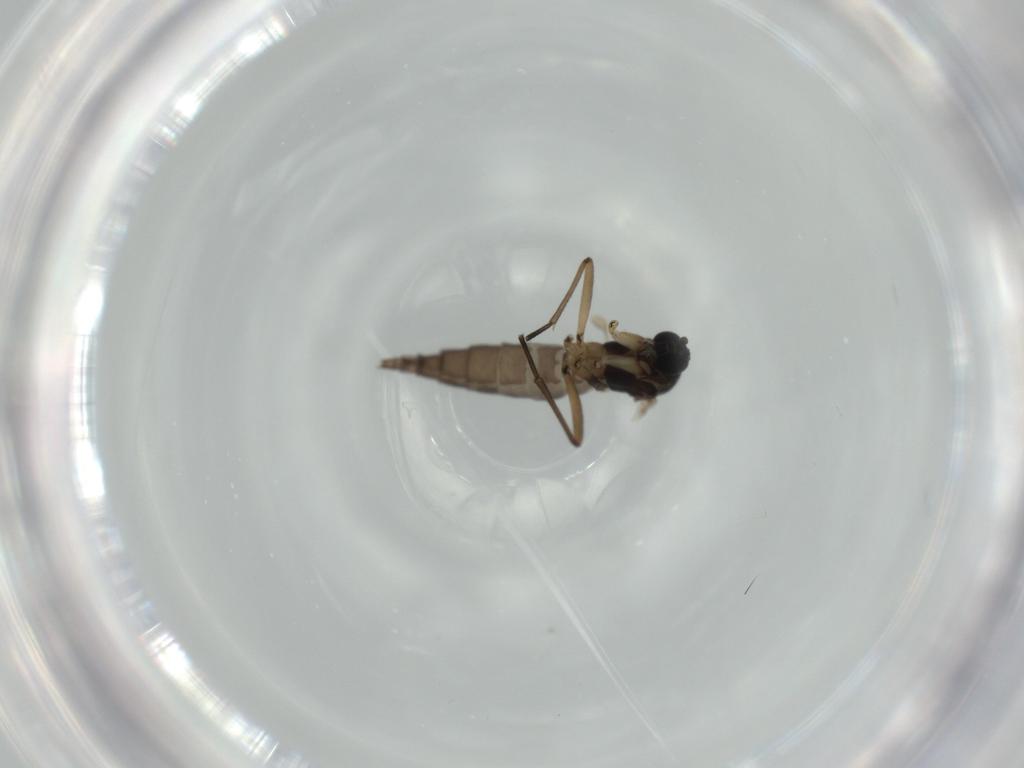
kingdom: Animalia
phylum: Arthropoda
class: Insecta
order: Diptera
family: Sciaridae
